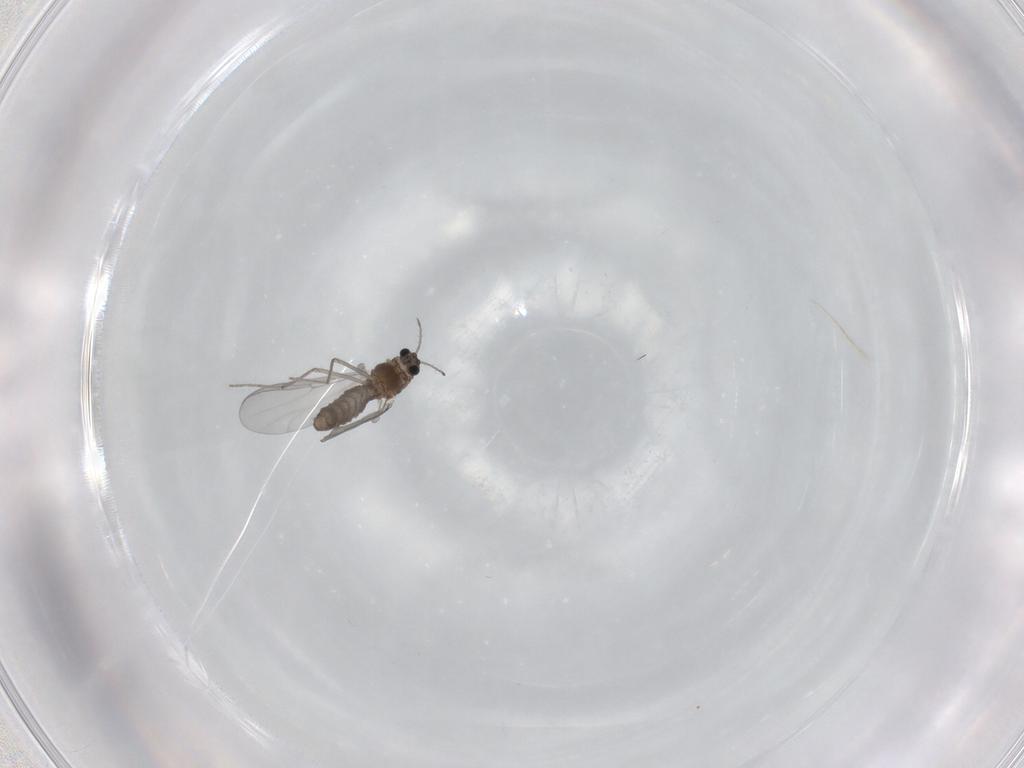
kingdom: Animalia
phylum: Arthropoda
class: Insecta
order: Diptera
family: Chironomidae
